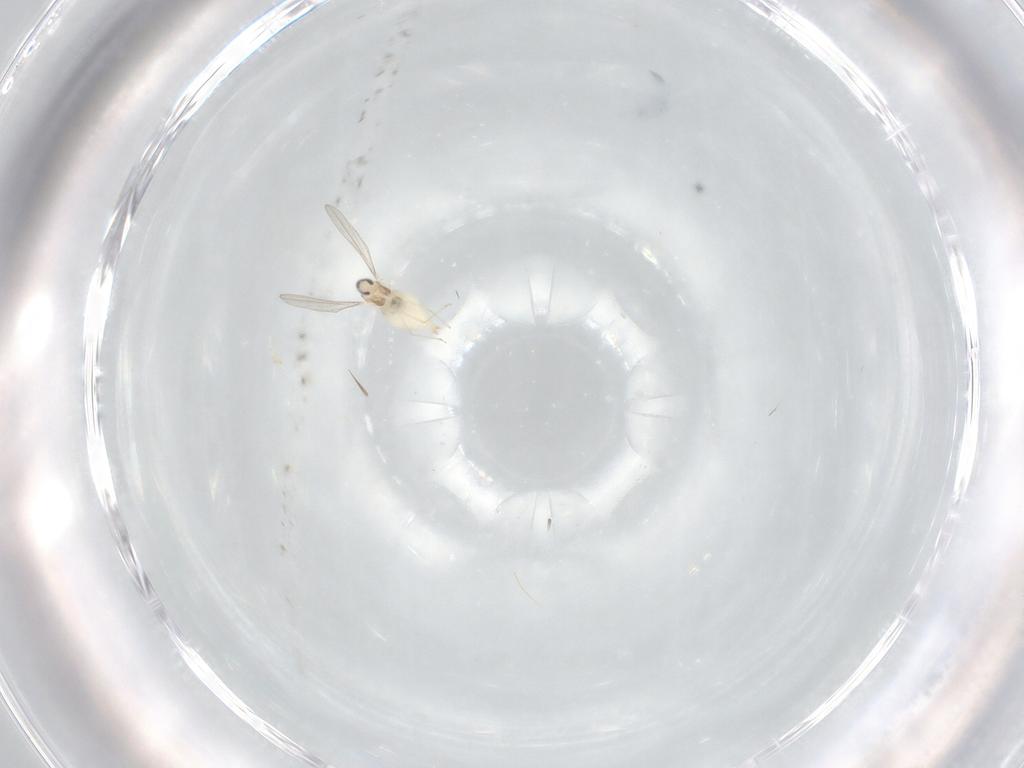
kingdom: Animalia
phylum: Arthropoda
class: Insecta
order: Diptera
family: Cecidomyiidae
